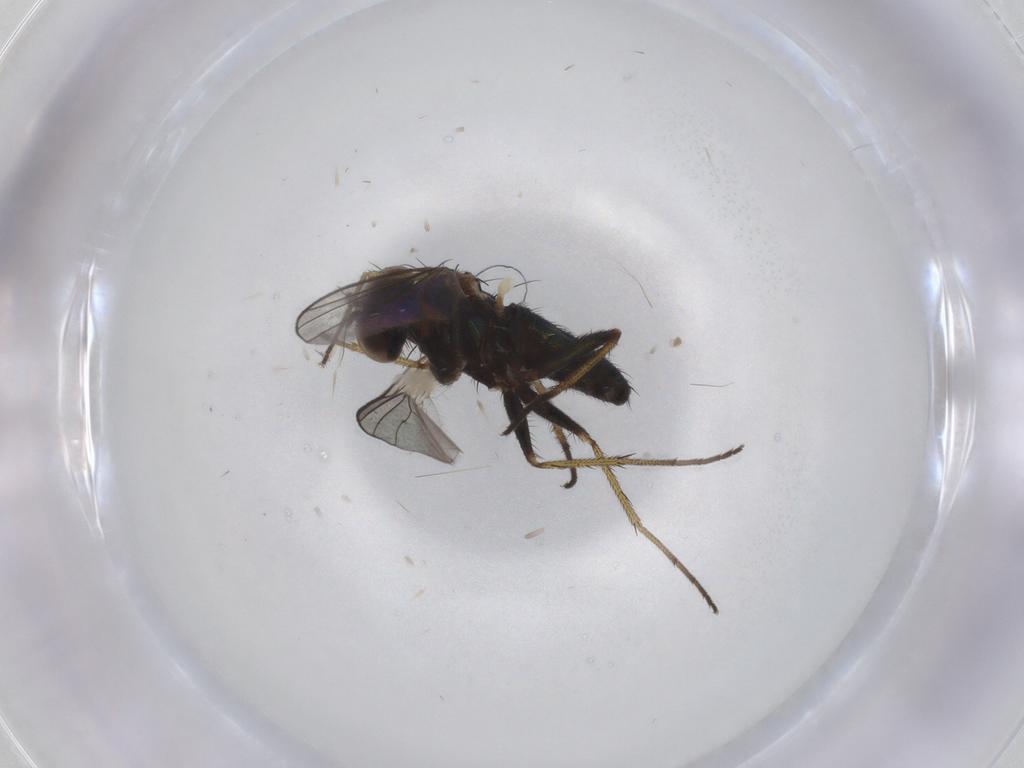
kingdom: Animalia
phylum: Arthropoda
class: Insecta
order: Diptera
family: Dolichopodidae
